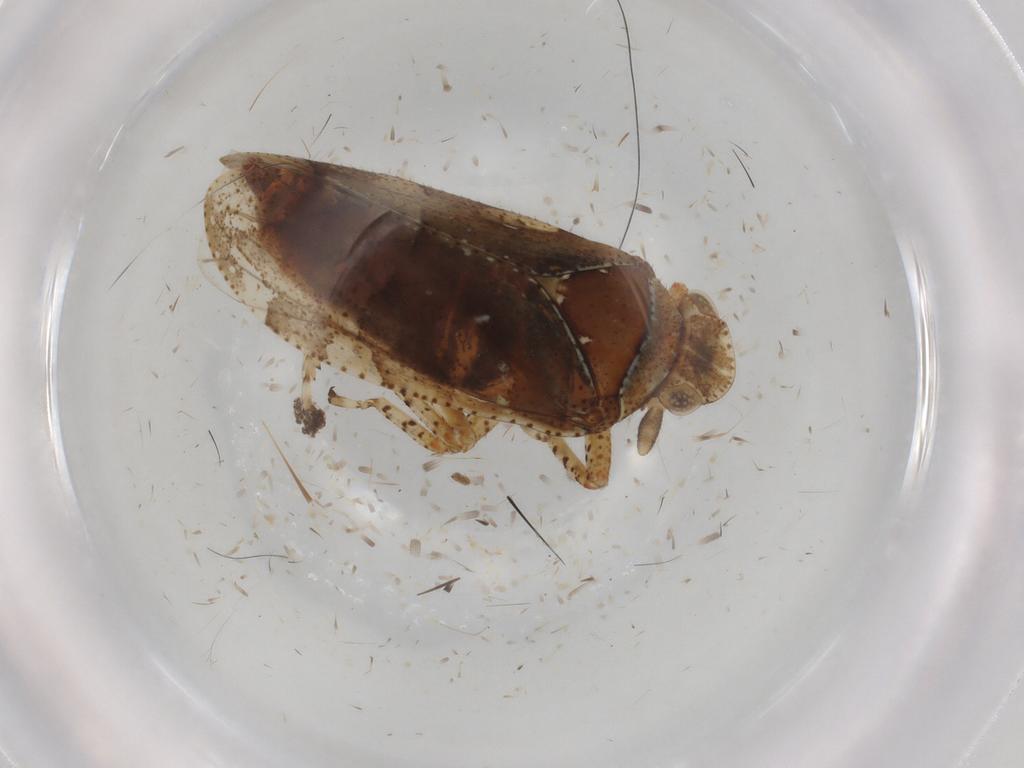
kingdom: Animalia
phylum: Arthropoda
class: Insecta
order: Hemiptera
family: Tettigometridae
